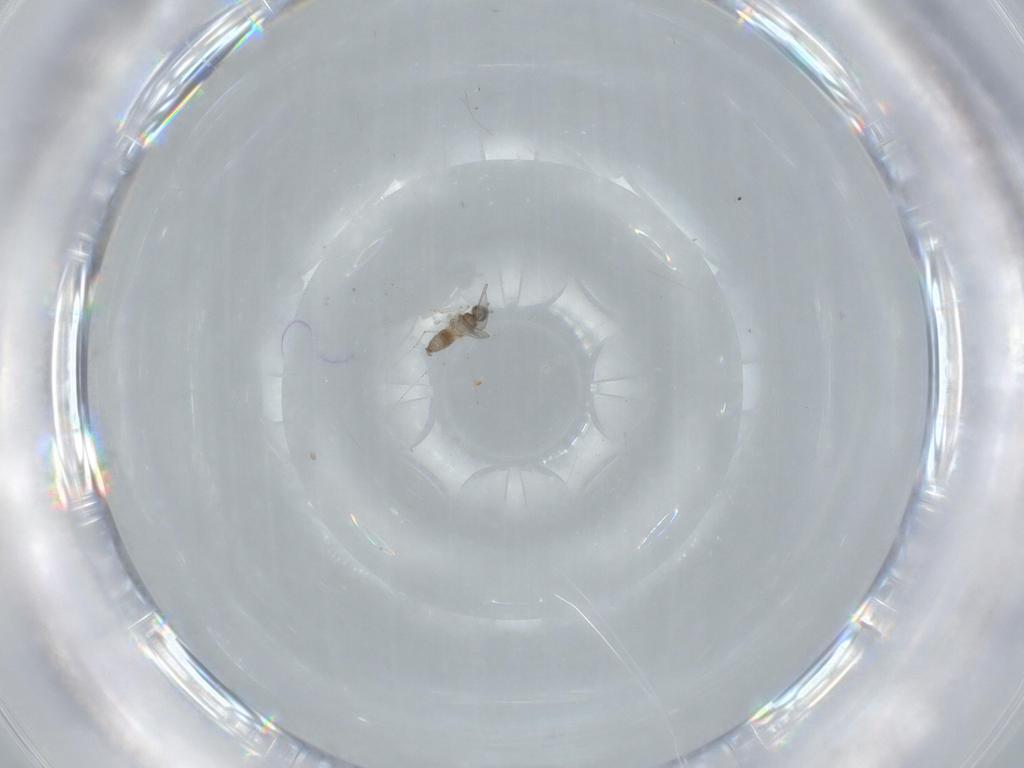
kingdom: Animalia
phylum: Arthropoda
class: Insecta
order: Diptera
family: Cecidomyiidae
